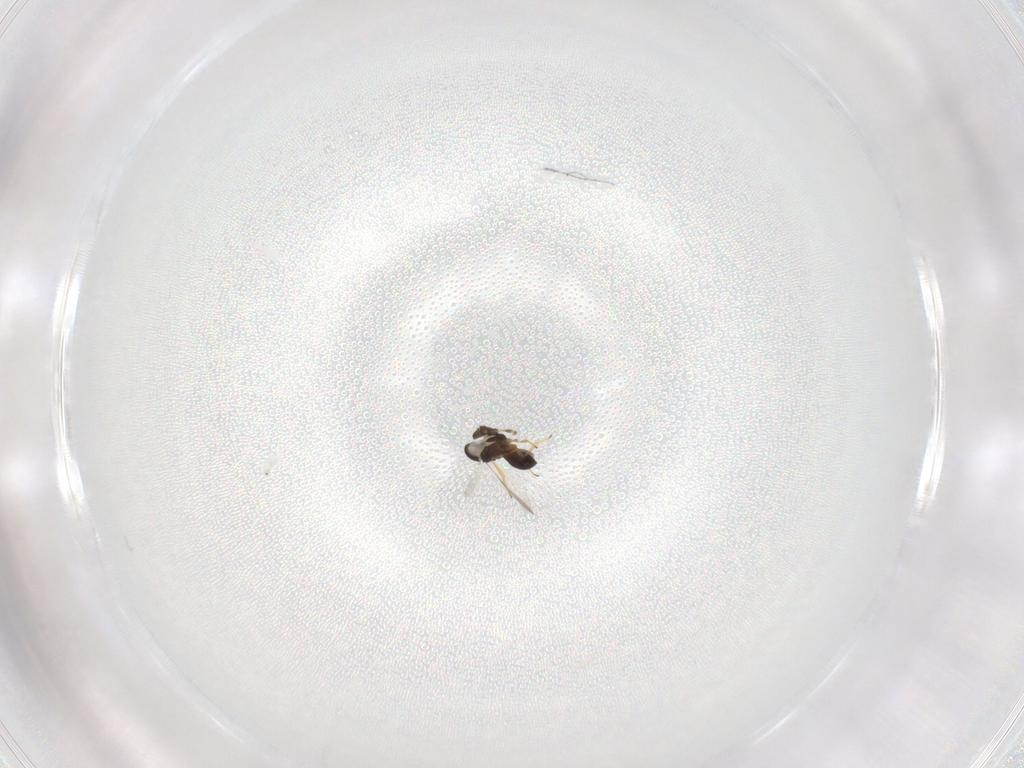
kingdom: Animalia
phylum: Arthropoda
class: Insecta
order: Hymenoptera
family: Scelionidae
